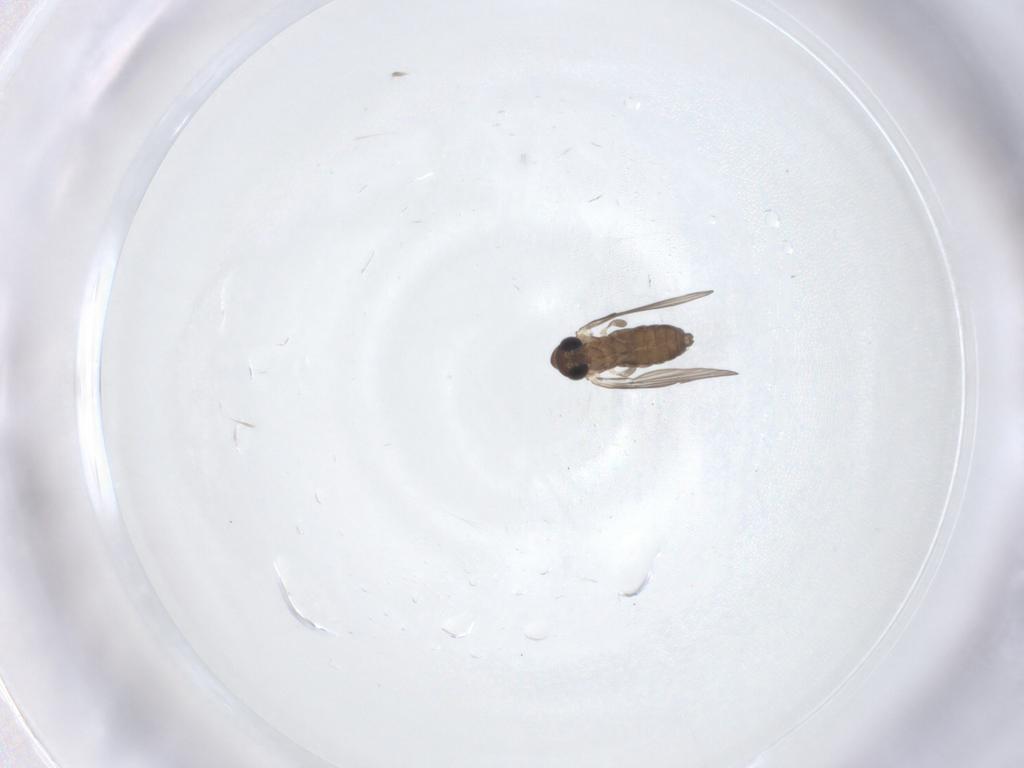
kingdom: Animalia
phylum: Arthropoda
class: Insecta
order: Diptera
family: Psychodidae
